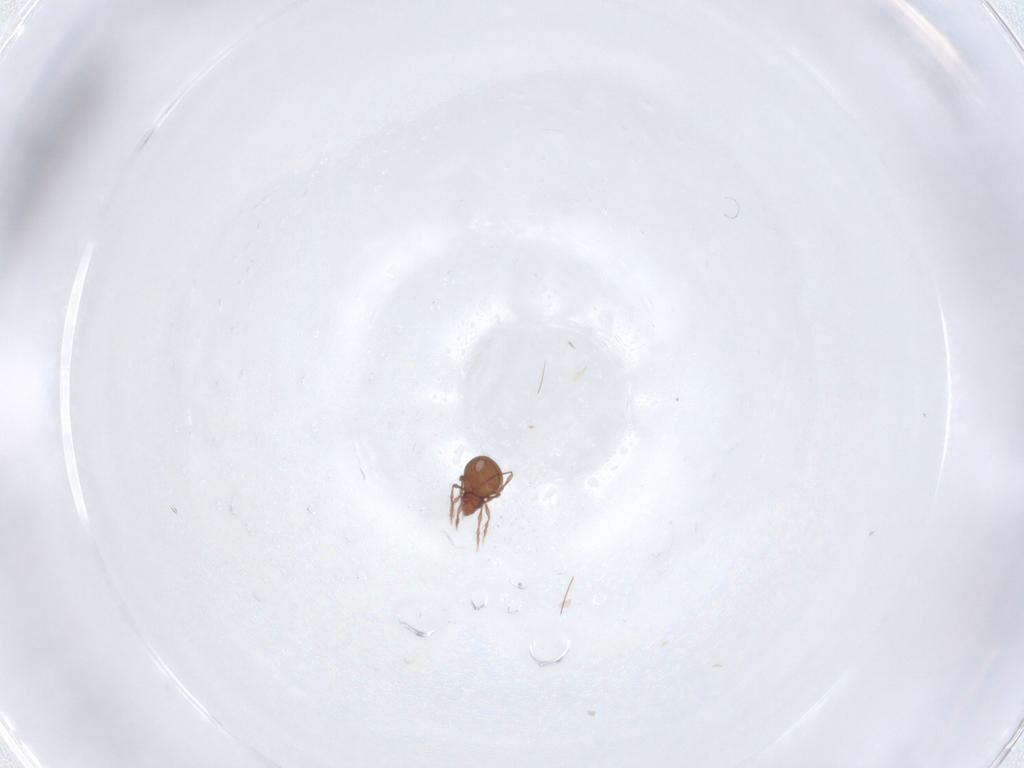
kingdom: Animalia
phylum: Arthropoda
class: Arachnida
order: Sarcoptiformes
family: Oppiidae
